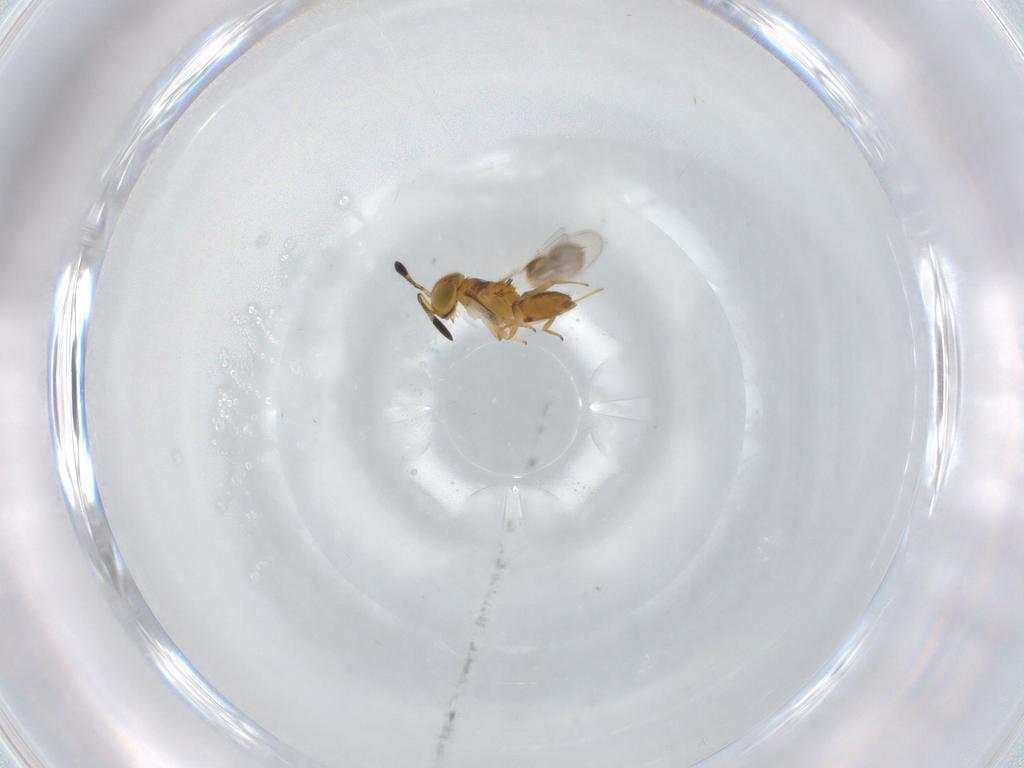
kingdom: Animalia
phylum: Arthropoda
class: Insecta
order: Hymenoptera
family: Encyrtidae
